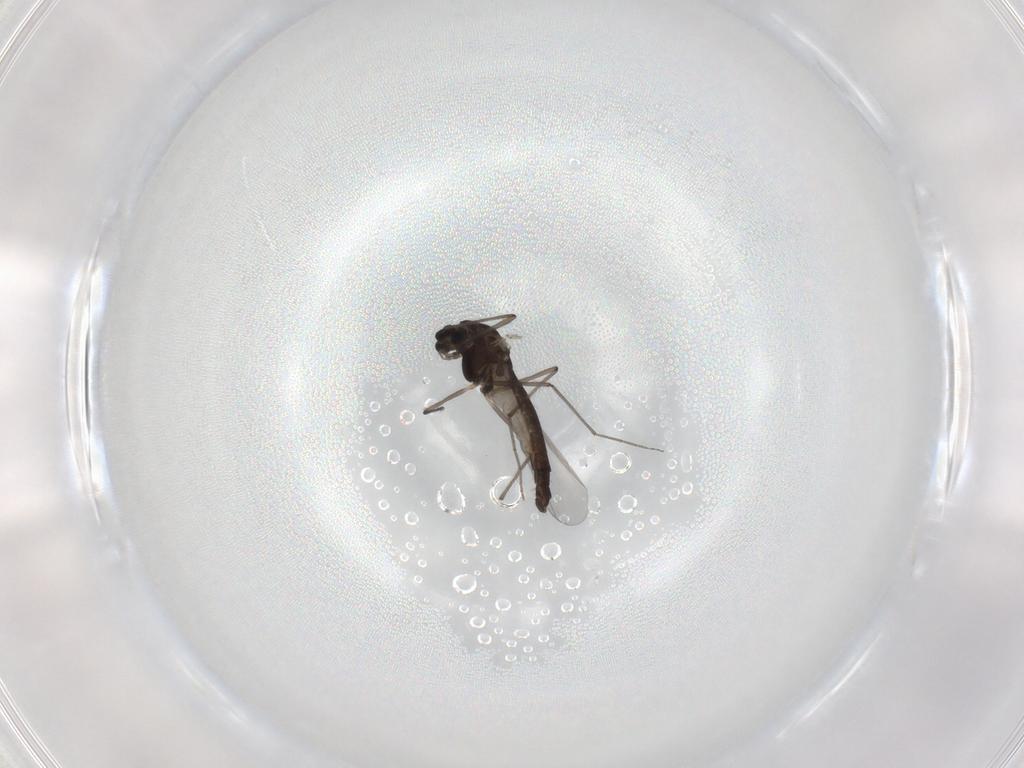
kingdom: Animalia
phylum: Arthropoda
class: Insecta
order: Diptera
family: Chironomidae
